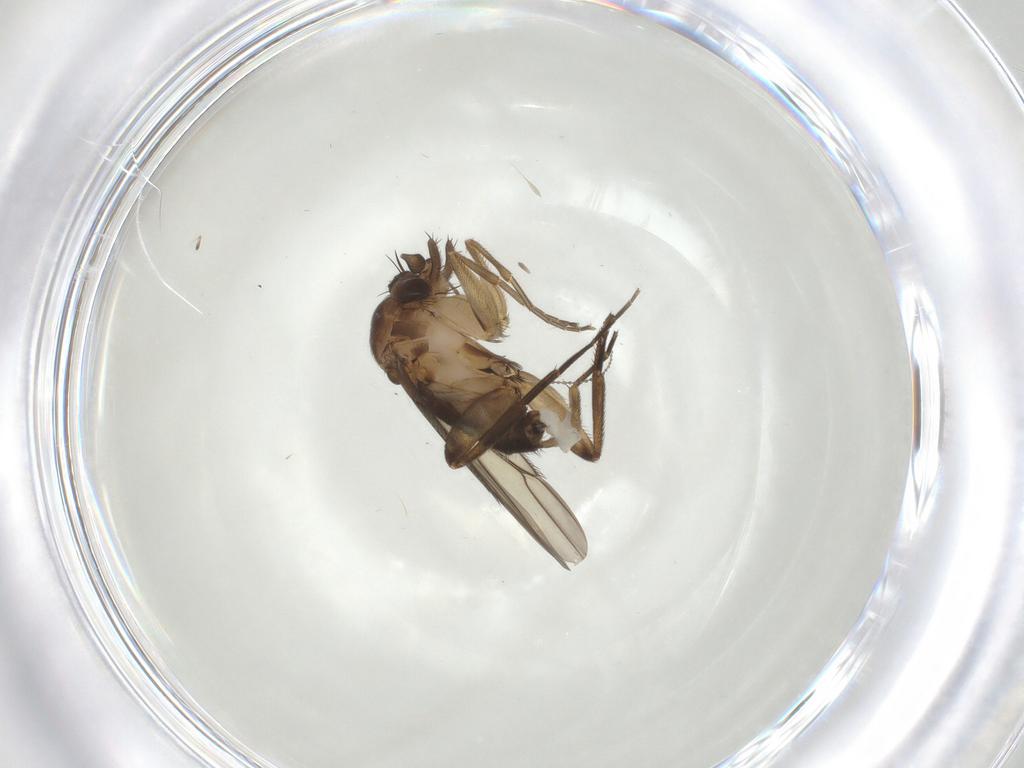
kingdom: Animalia
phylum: Arthropoda
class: Insecta
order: Diptera
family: Phoridae
